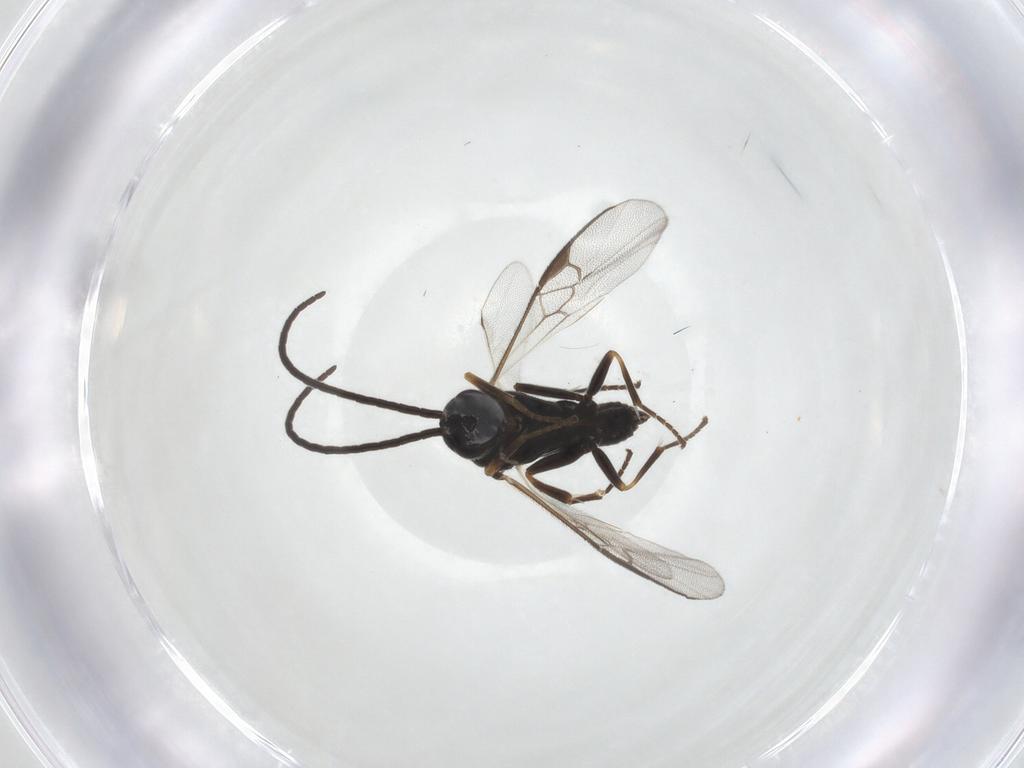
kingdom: Animalia
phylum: Arthropoda
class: Insecta
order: Hymenoptera
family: Braconidae
